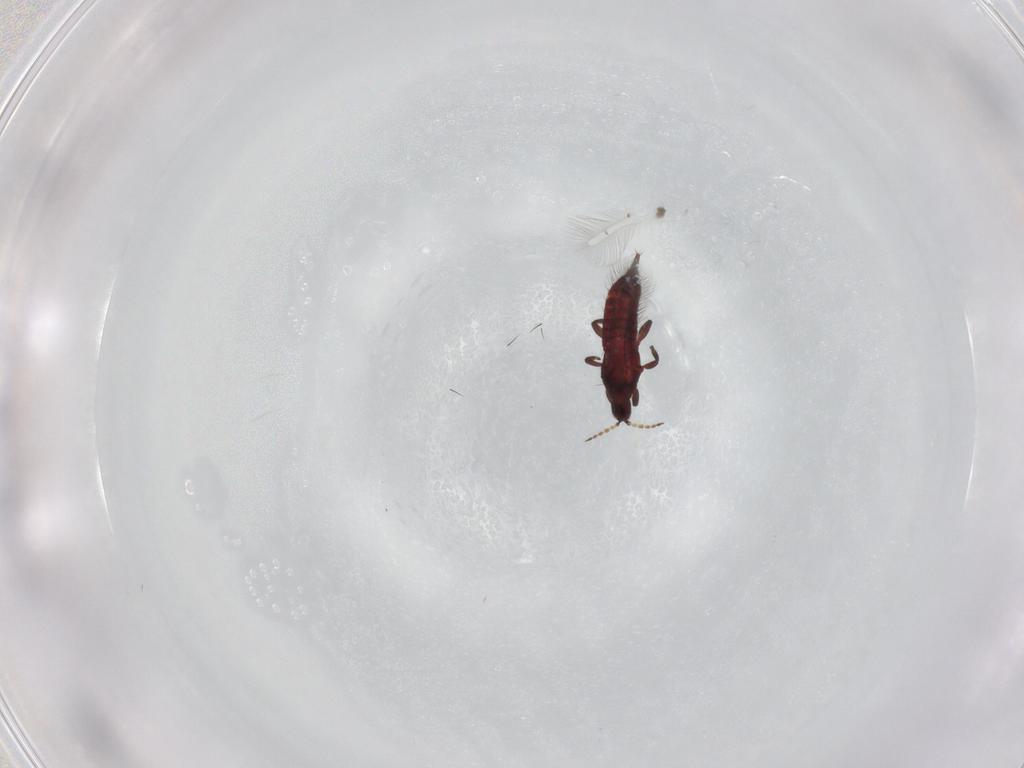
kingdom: Animalia
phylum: Arthropoda
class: Insecta
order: Thysanoptera
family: Phlaeothripidae
